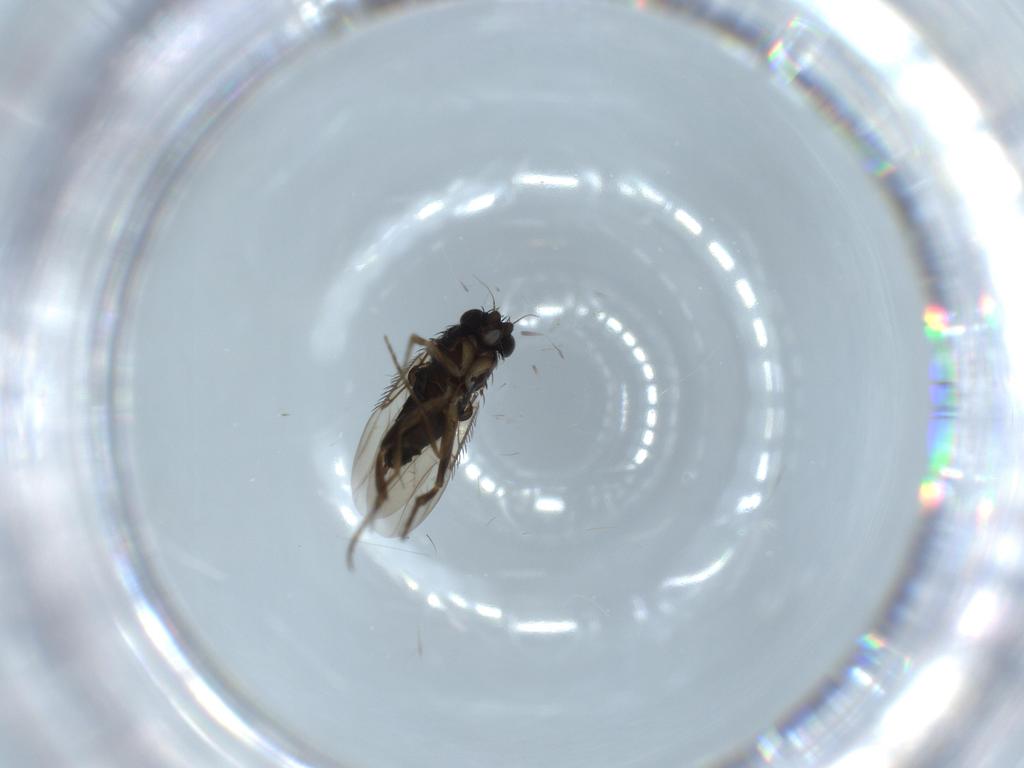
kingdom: Animalia
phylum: Arthropoda
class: Insecta
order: Diptera
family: Phoridae
